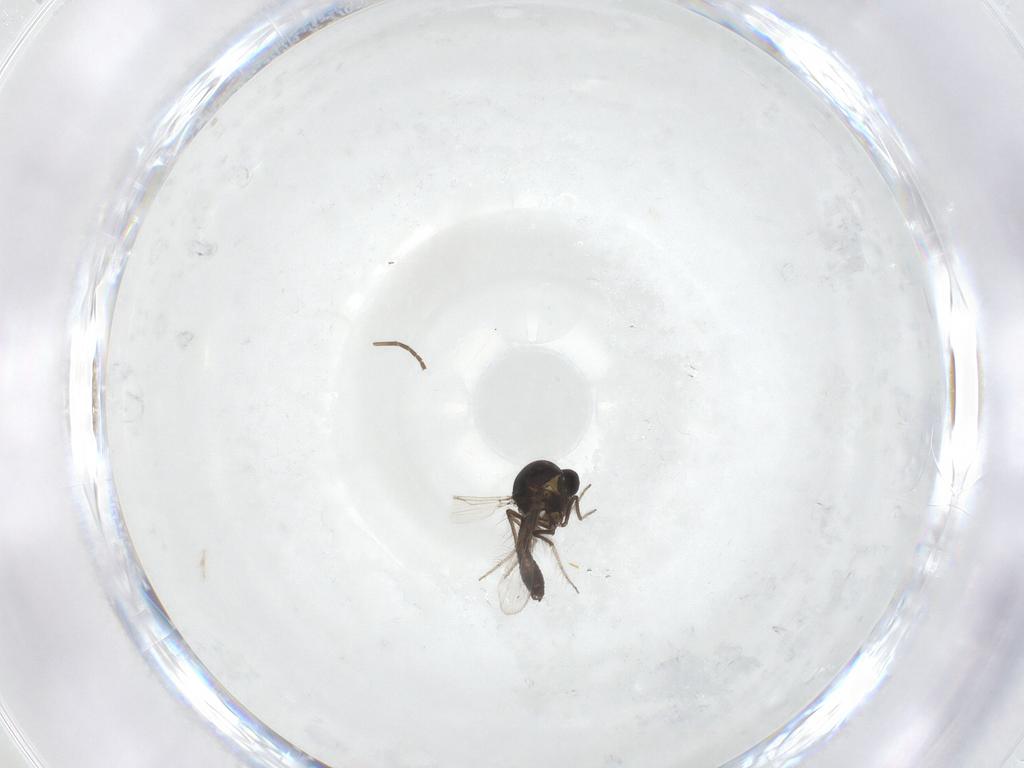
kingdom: Animalia
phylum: Arthropoda
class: Insecta
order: Diptera
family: Ceratopogonidae
